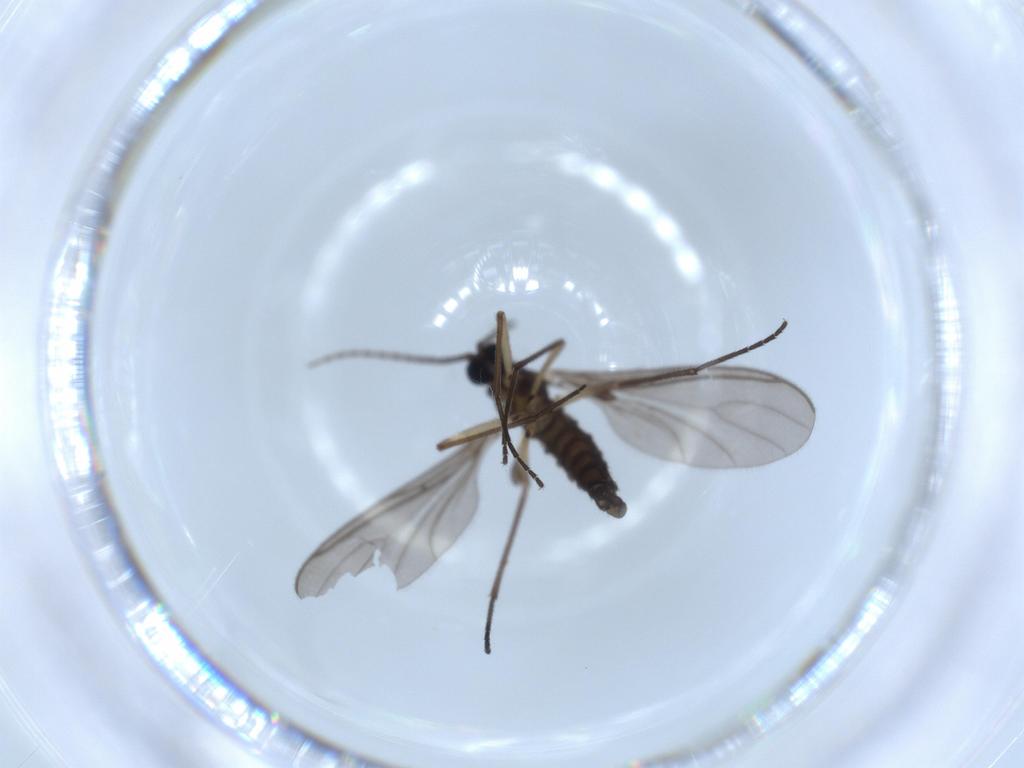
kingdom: Animalia
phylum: Arthropoda
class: Insecta
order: Diptera
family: Sciaridae
